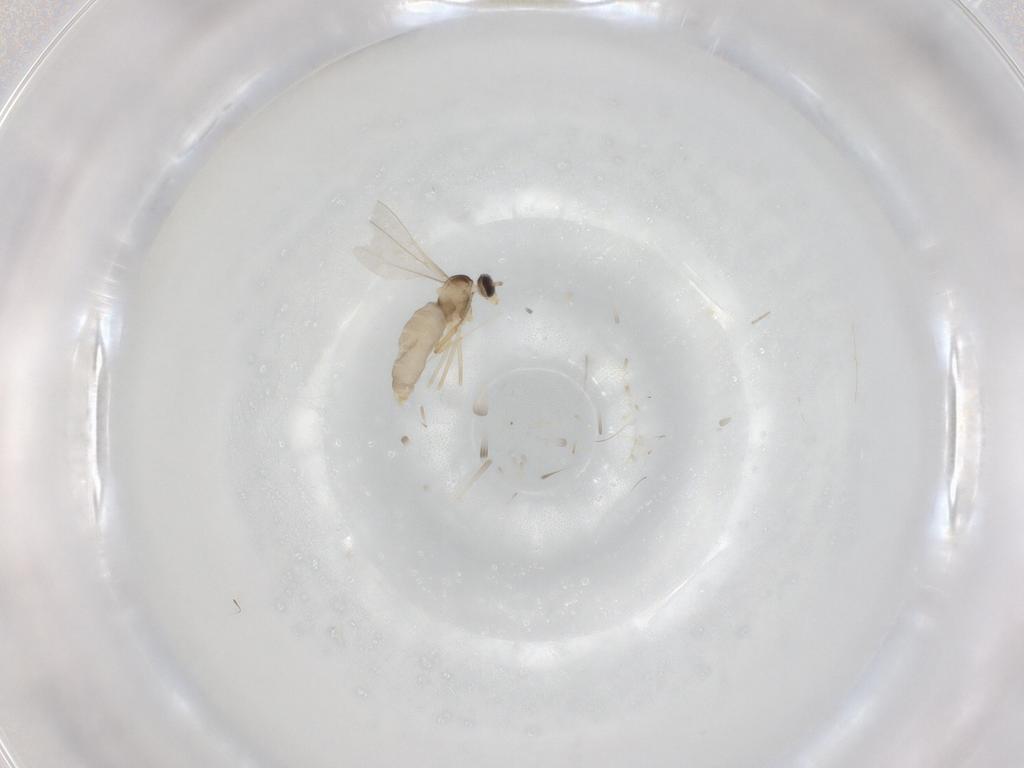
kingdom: Animalia
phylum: Arthropoda
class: Insecta
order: Diptera
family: Cecidomyiidae
